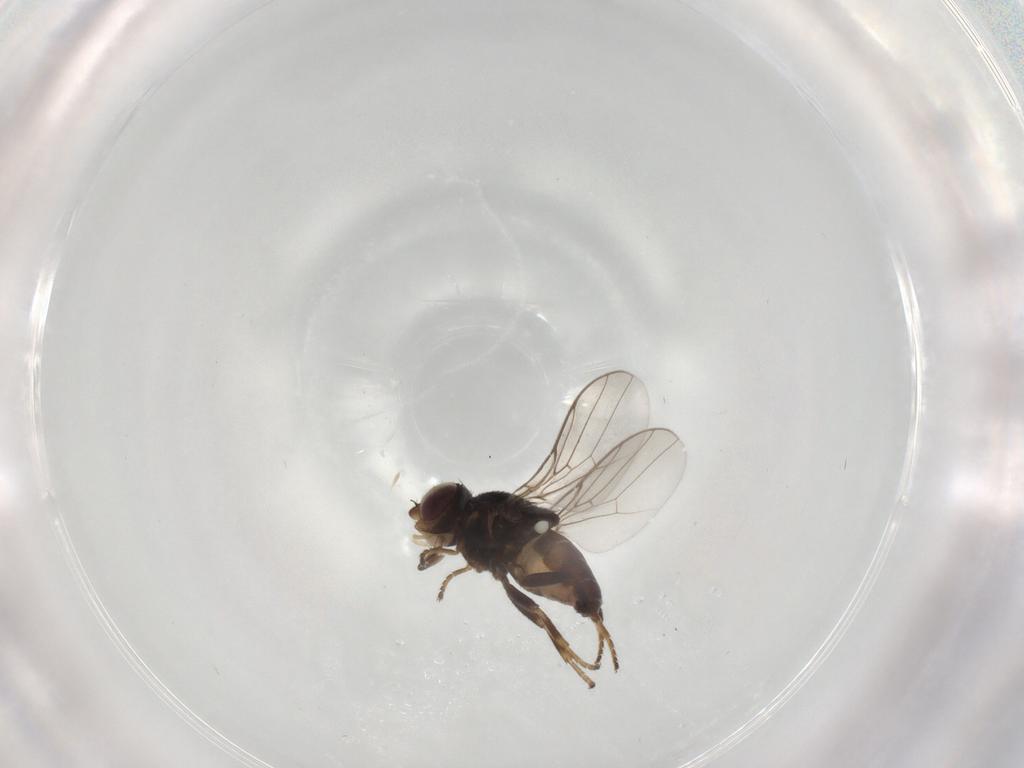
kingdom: Animalia
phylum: Arthropoda
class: Insecta
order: Diptera
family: Chloropidae
